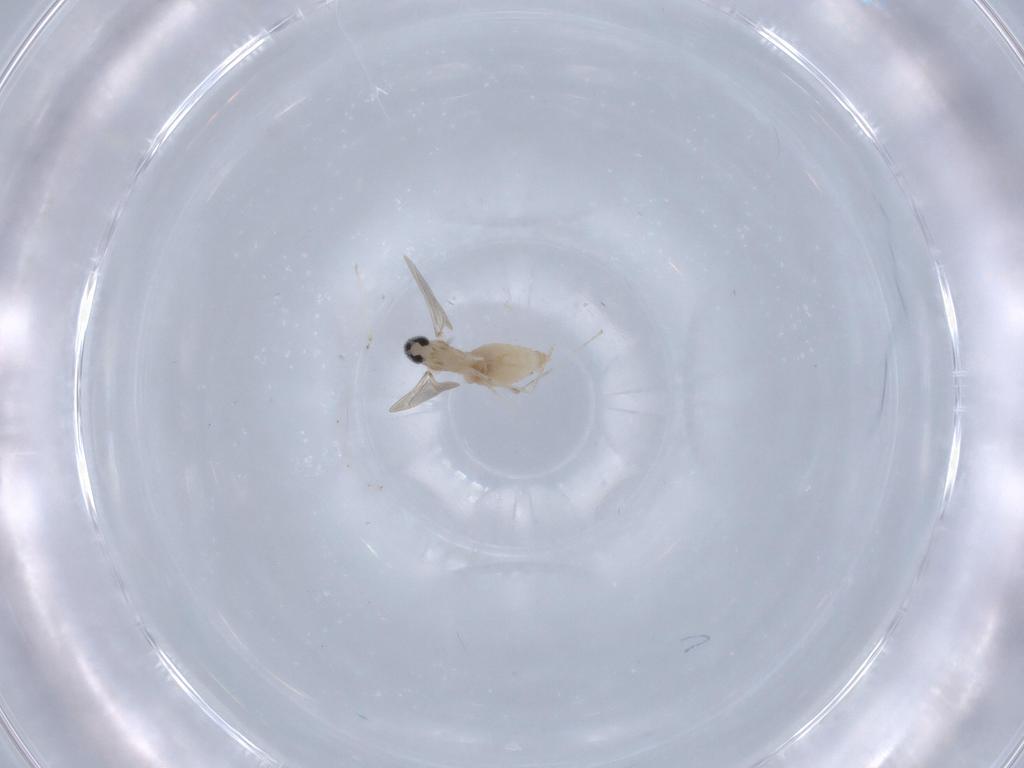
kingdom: Animalia
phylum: Arthropoda
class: Insecta
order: Diptera
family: Cecidomyiidae
